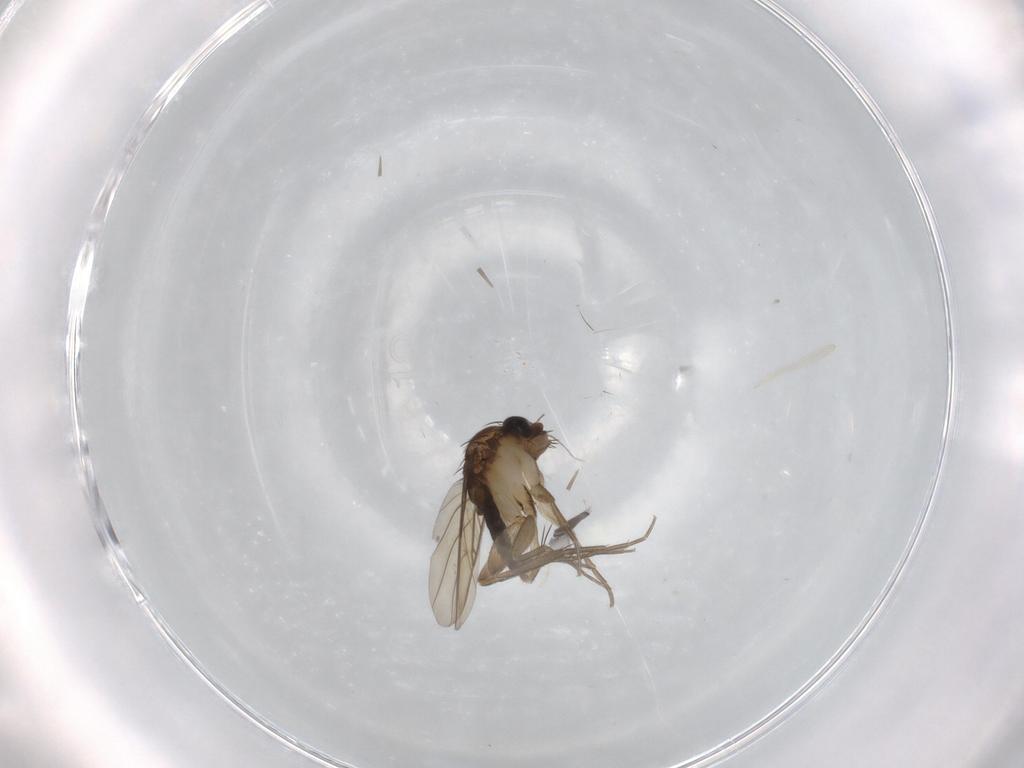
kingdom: Animalia
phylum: Arthropoda
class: Insecta
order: Diptera
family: Phoridae
